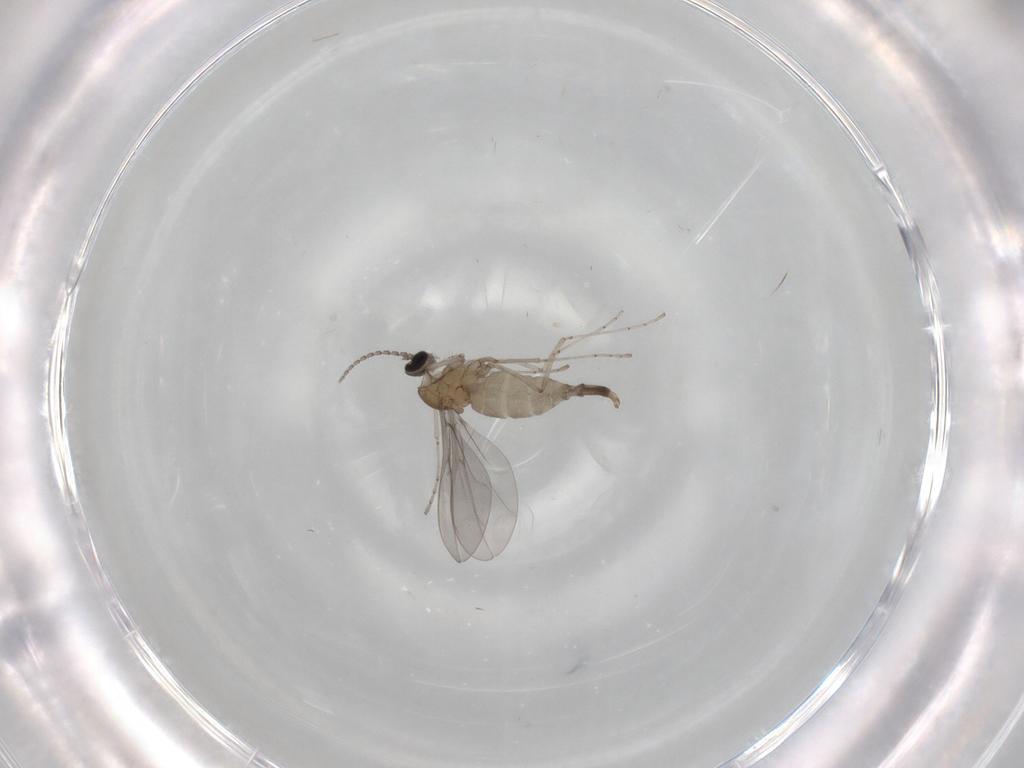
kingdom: Animalia
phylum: Arthropoda
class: Insecta
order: Diptera
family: Cecidomyiidae
